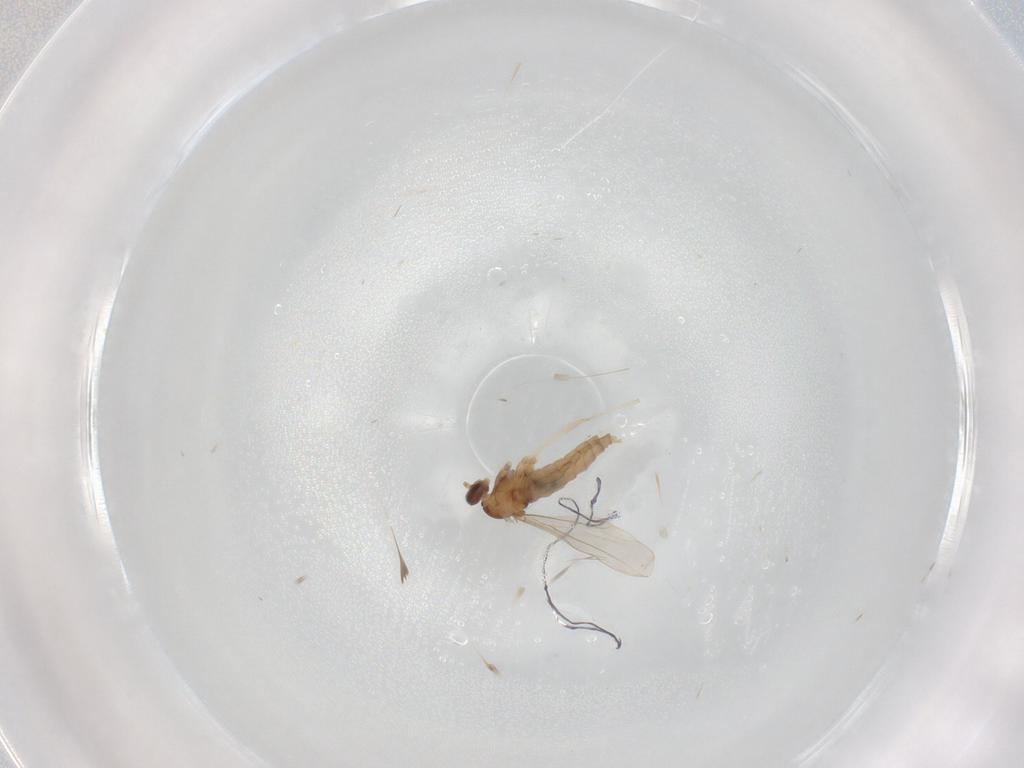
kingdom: Animalia
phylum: Arthropoda
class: Insecta
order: Diptera
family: Cecidomyiidae
